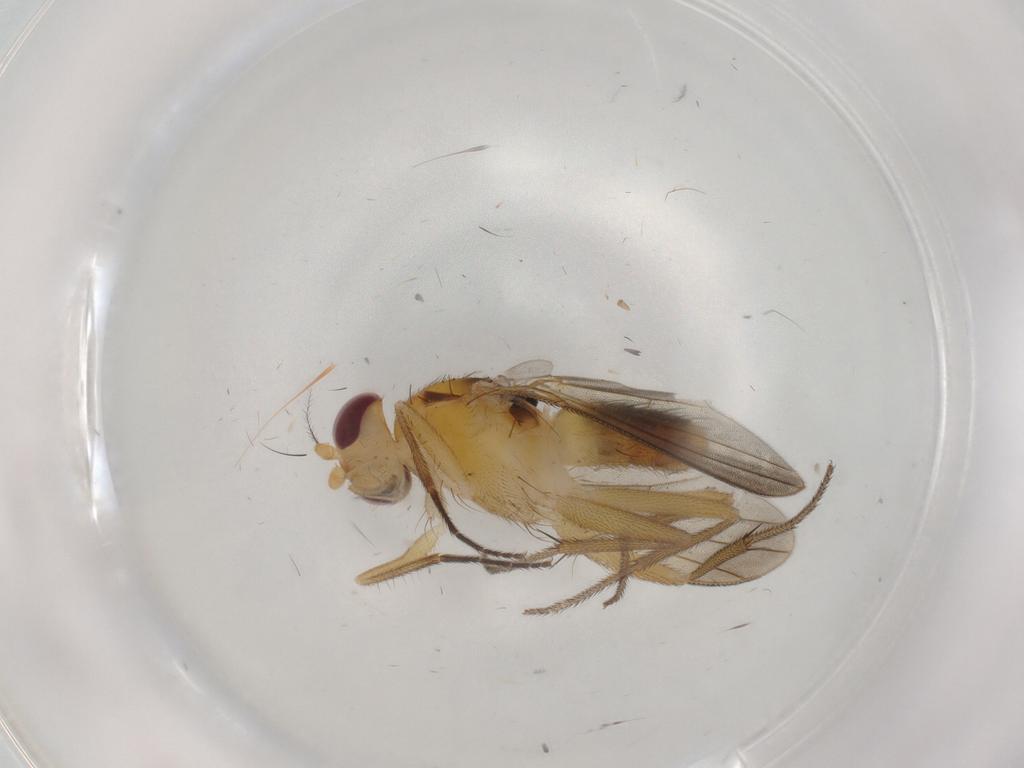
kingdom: Animalia
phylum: Arthropoda
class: Insecta
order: Diptera
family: Clusiidae
